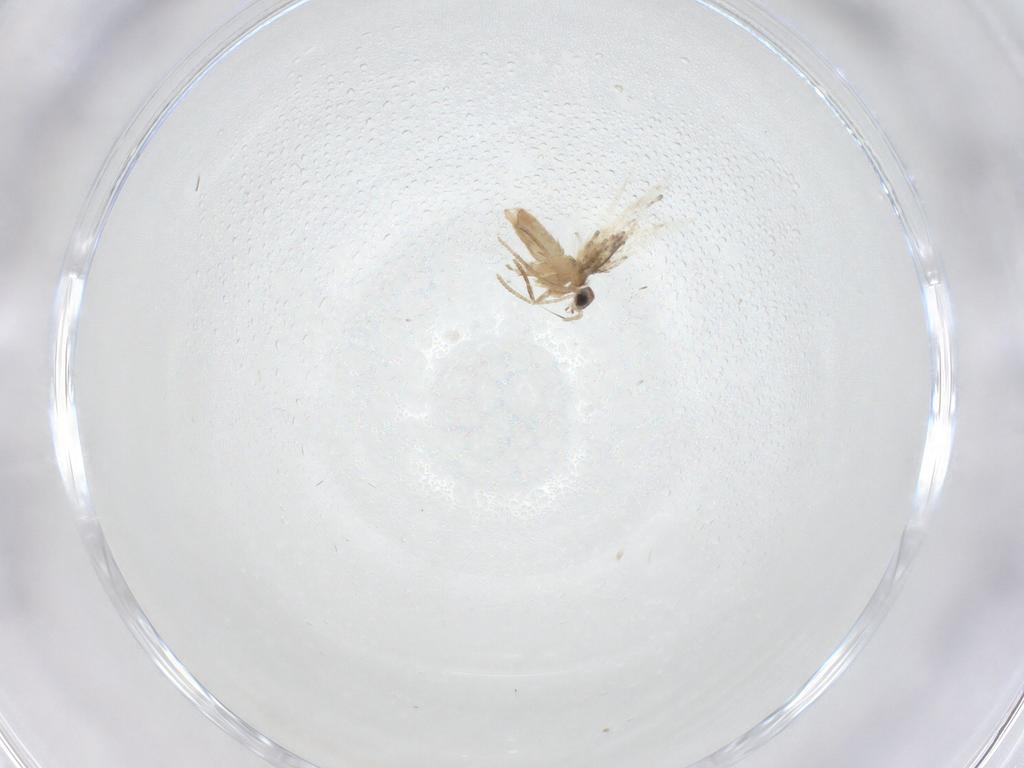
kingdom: Animalia
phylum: Arthropoda
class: Insecta
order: Lepidoptera
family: Nepticulidae
